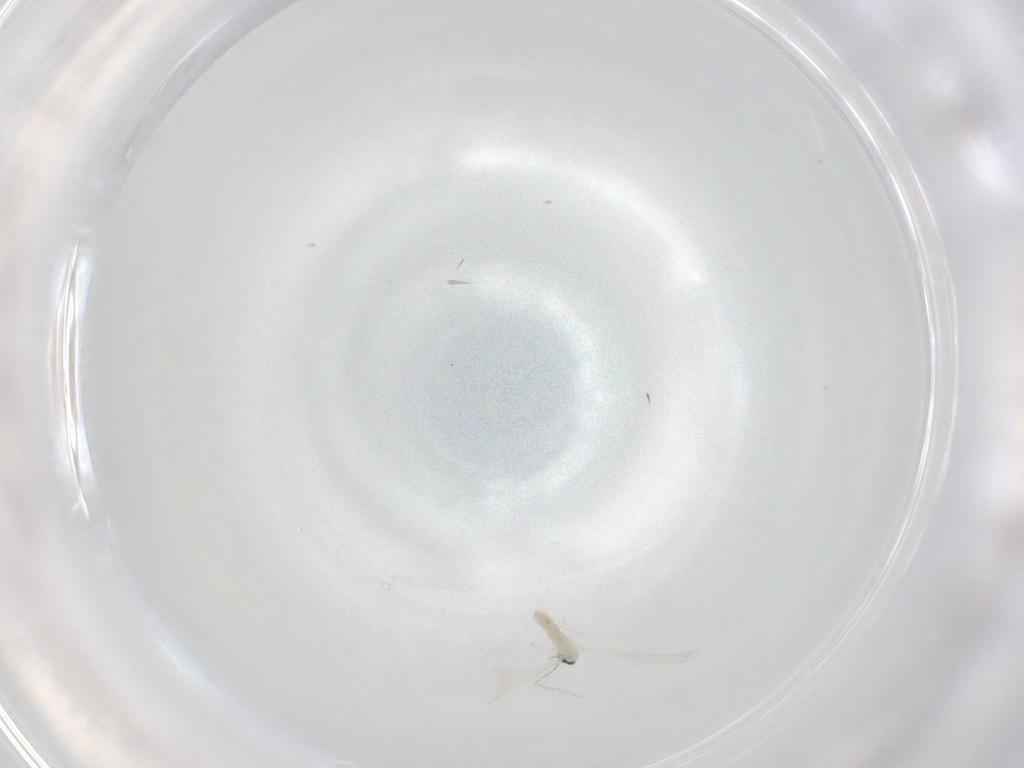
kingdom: Animalia
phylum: Arthropoda
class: Insecta
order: Diptera
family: Cecidomyiidae
